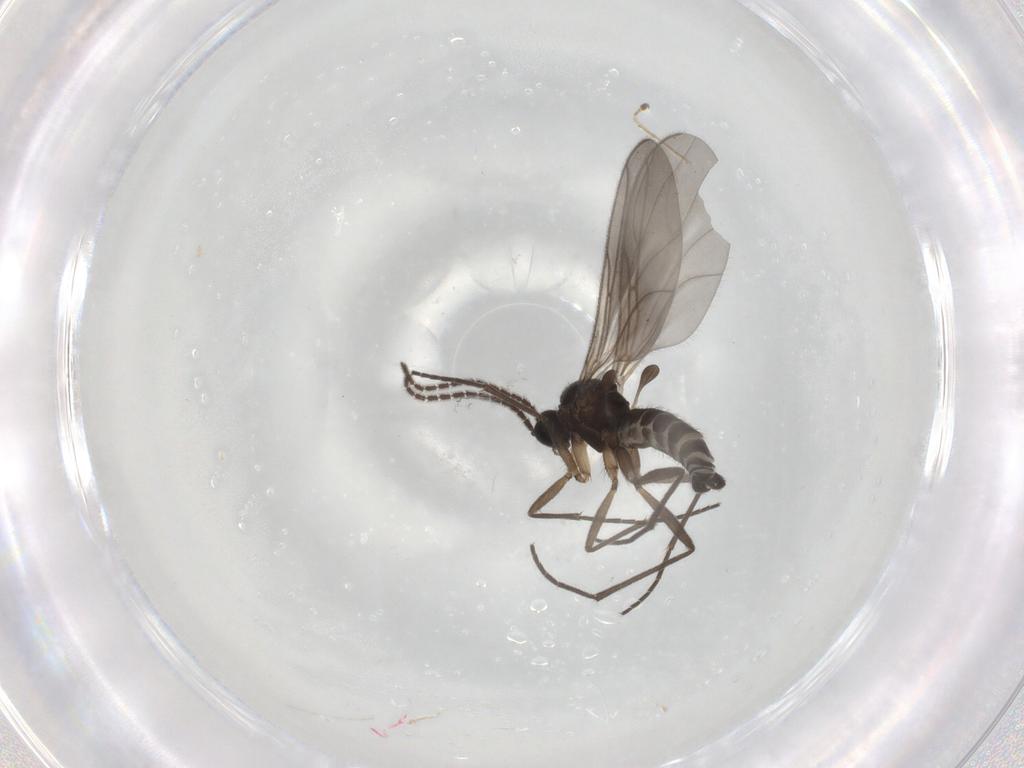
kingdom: Animalia
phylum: Arthropoda
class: Insecta
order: Diptera
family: Sciaridae
